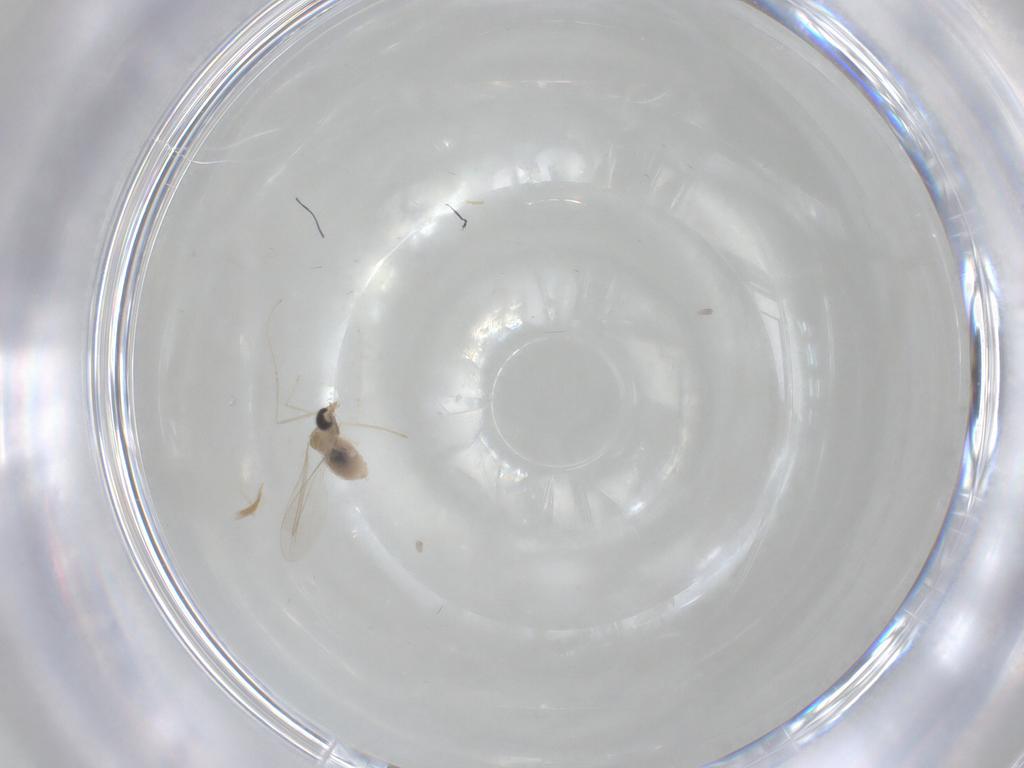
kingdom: Animalia
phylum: Arthropoda
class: Insecta
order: Diptera
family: Cecidomyiidae
